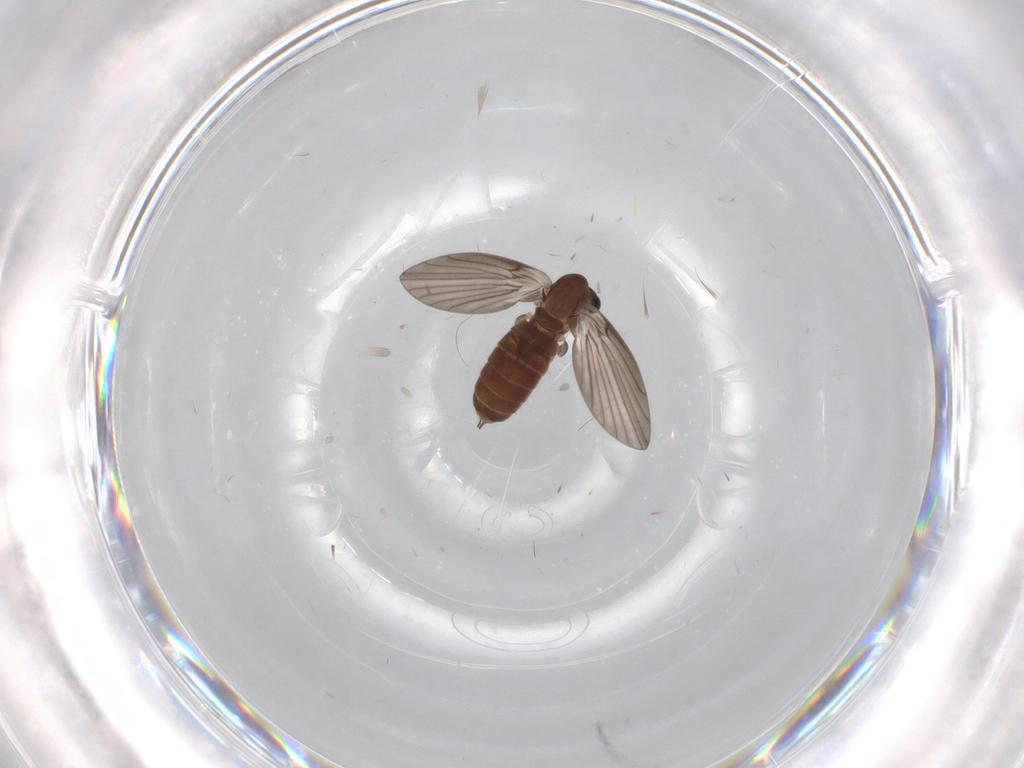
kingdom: Animalia
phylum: Arthropoda
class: Insecta
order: Diptera
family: Psychodidae
